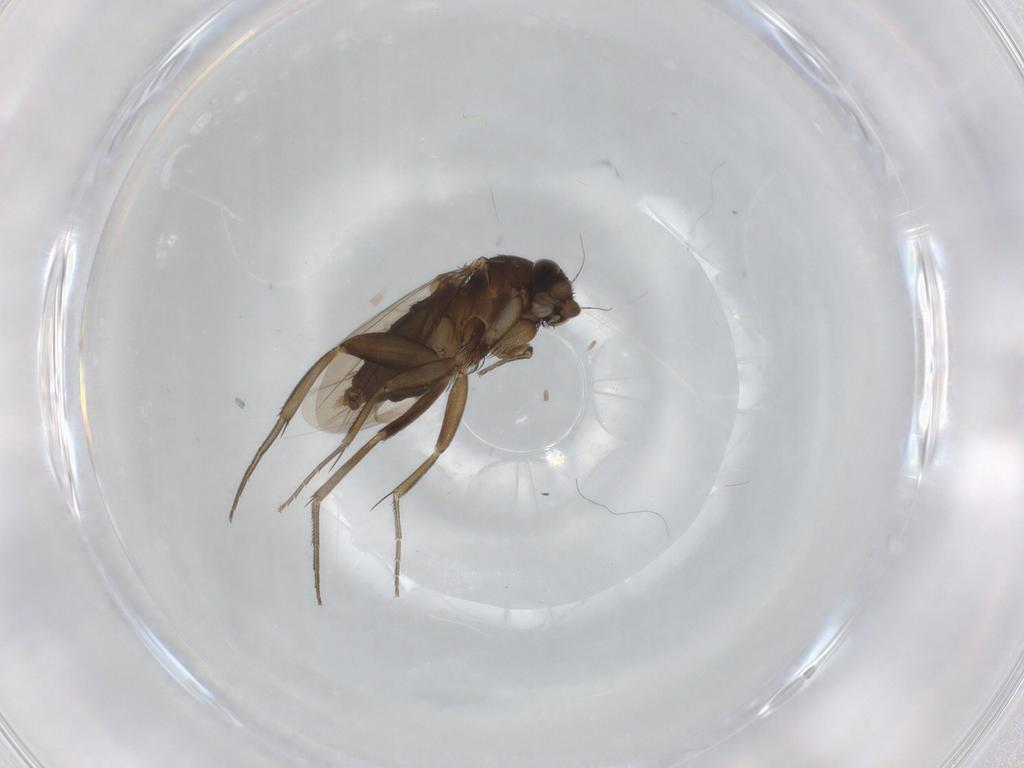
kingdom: Animalia
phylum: Arthropoda
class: Insecta
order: Diptera
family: Phoridae
